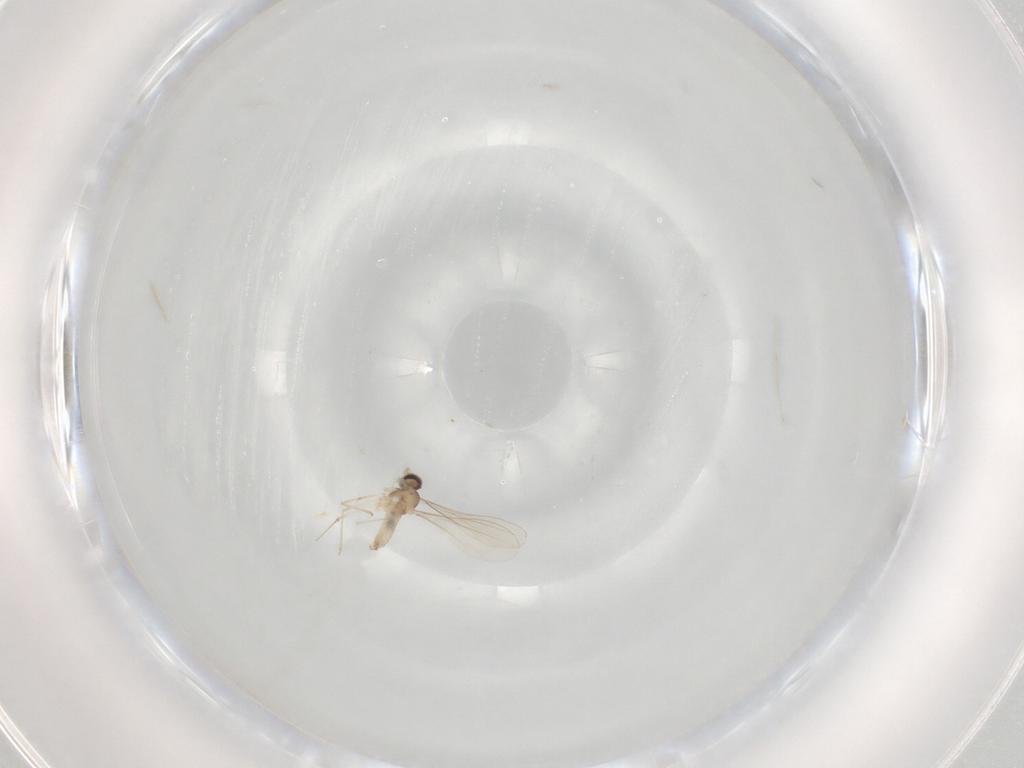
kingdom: Animalia
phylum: Arthropoda
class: Insecta
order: Diptera
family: Cecidomyiidae
